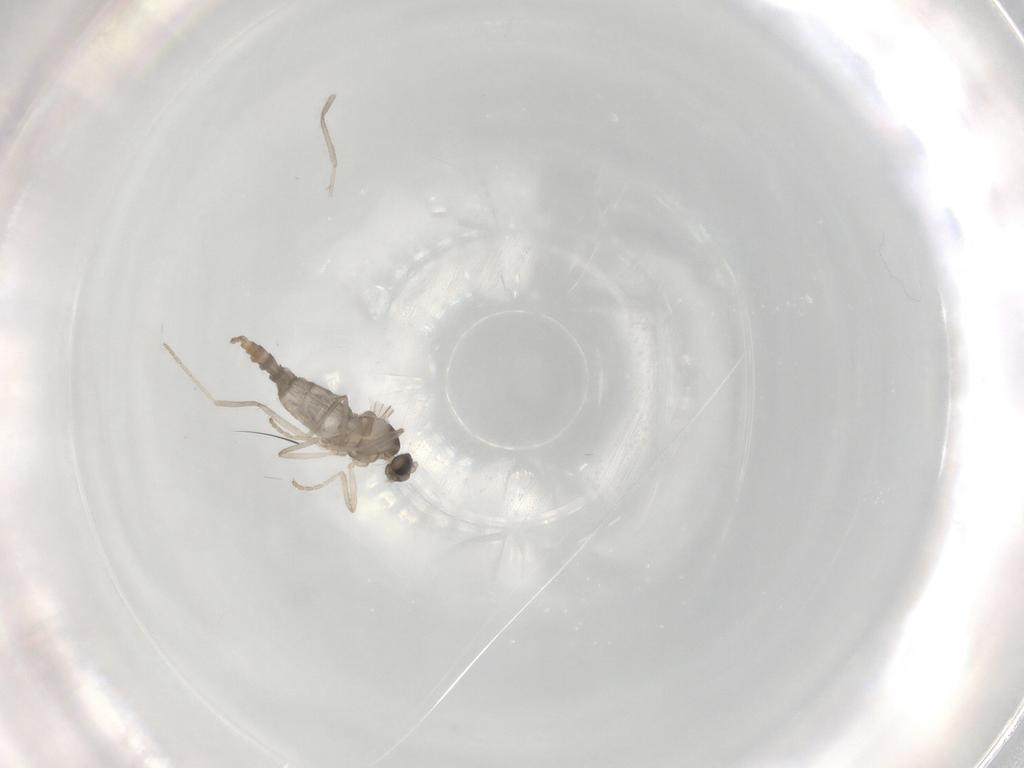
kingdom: Animalia
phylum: Arthropoda
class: Insecta
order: Diptera
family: Cecidomyiidae
